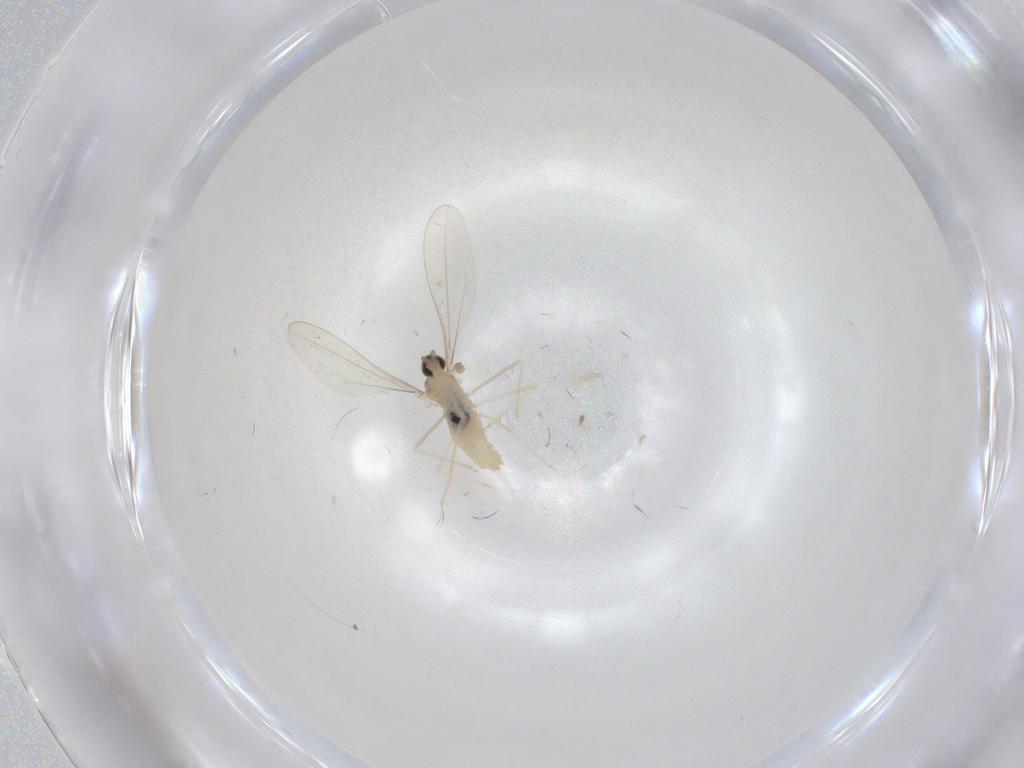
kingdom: Animalia
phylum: Arthropoda
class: Insecta
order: Diptera
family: Cecidomyiidae
